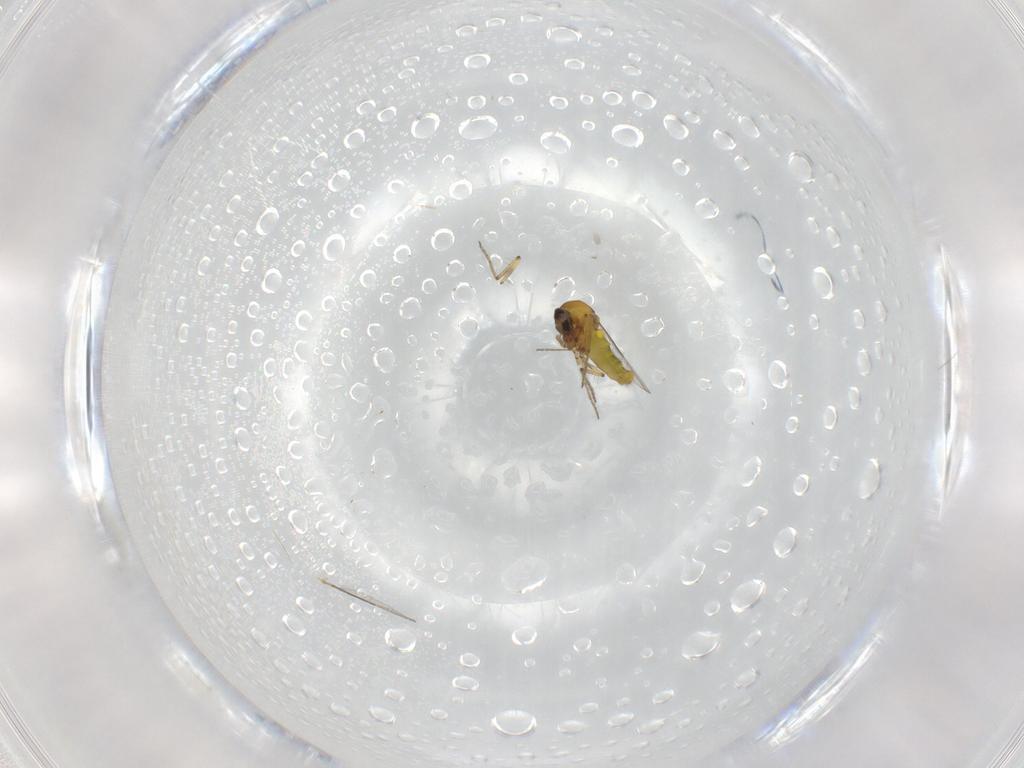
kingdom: Animalia
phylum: Arthropoda
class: Insecta
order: Diptera
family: Ceratopogonidae
